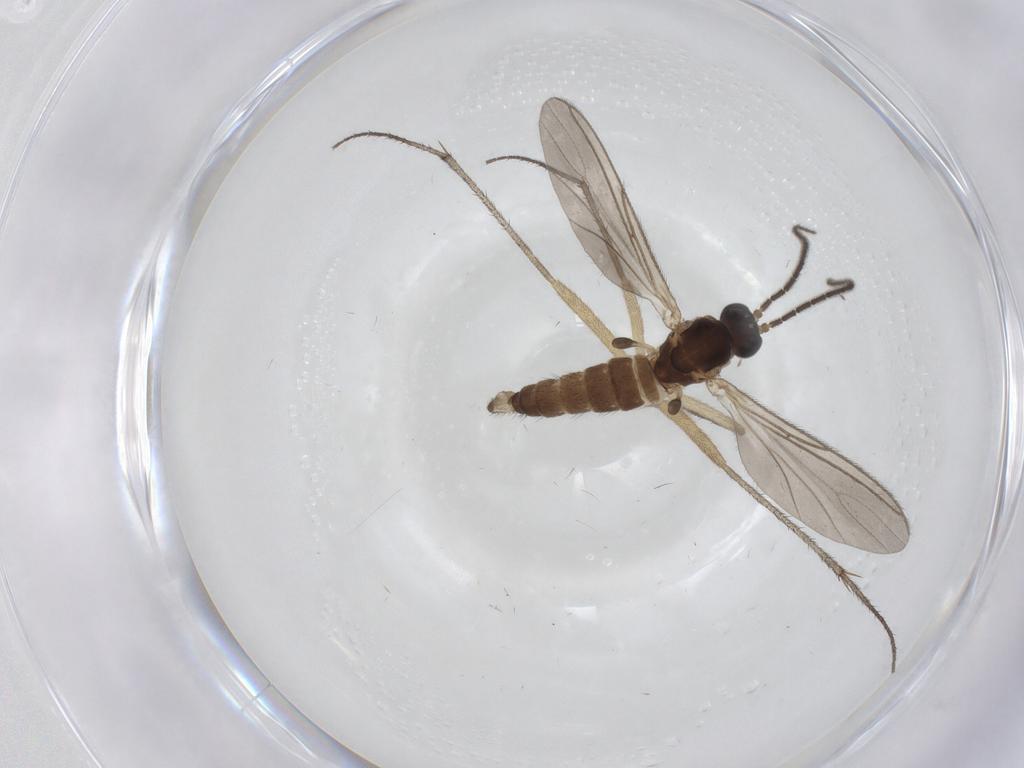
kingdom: Animalia
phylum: Arthropoda
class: Insecta
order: Diptera
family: Sciaridae
